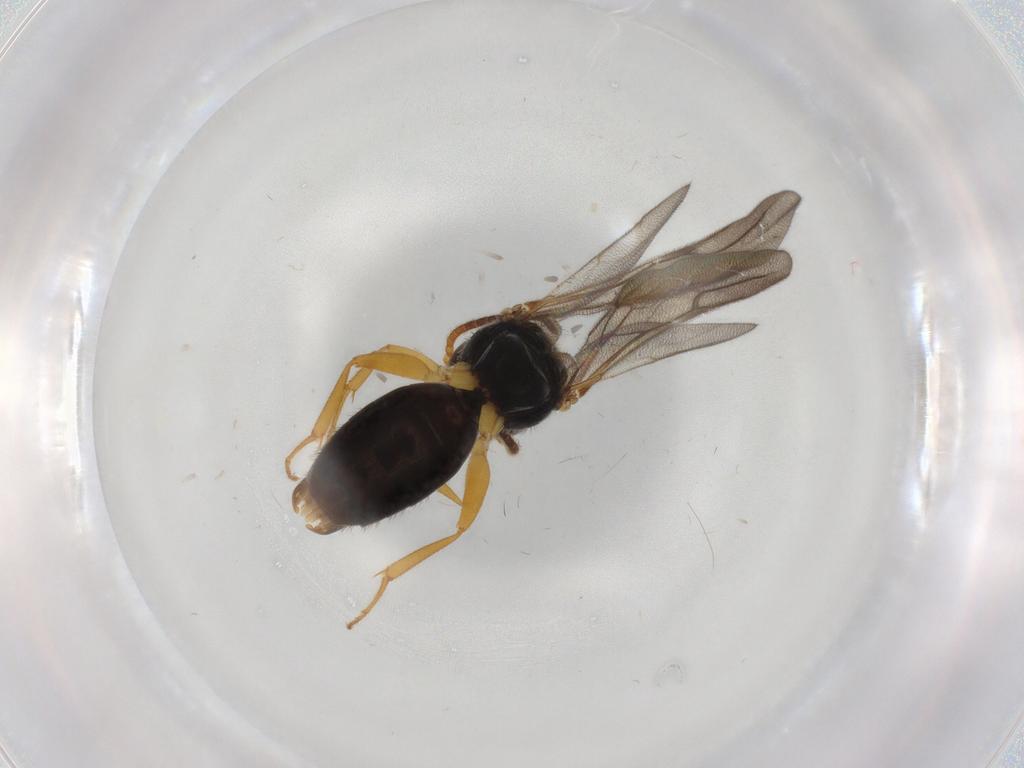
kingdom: Animalia
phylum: Arthropoda
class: Insecta
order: Hymenoptera
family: Bethylidae
